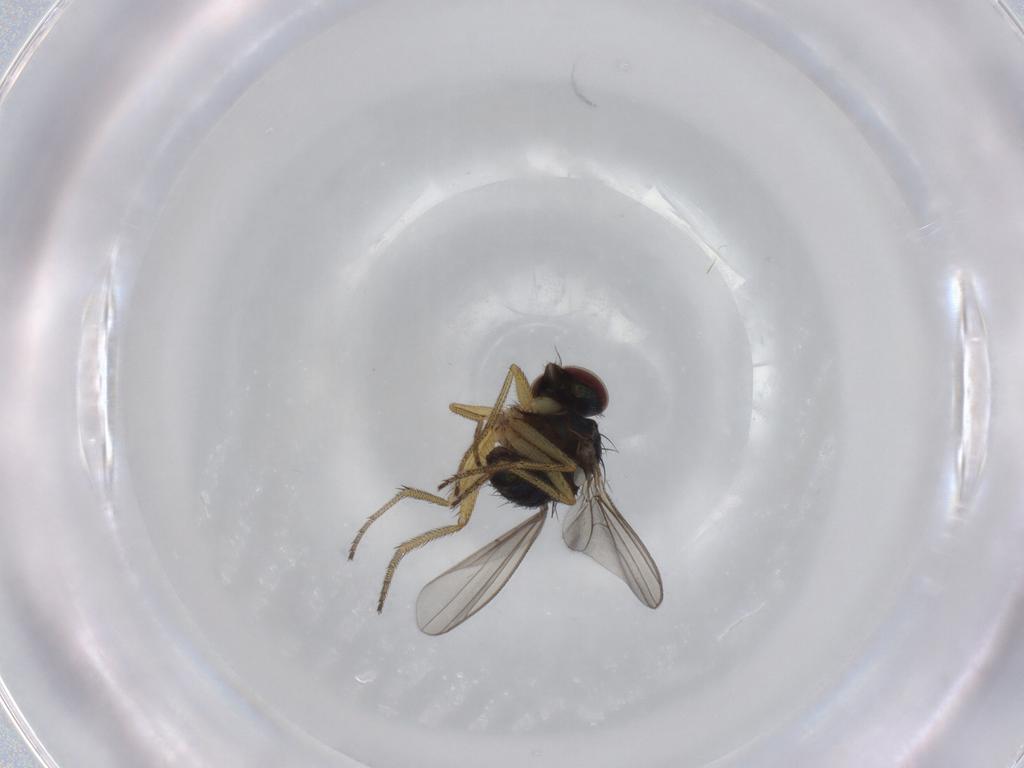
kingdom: Animalia
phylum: Arthropoda
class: Insecta
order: Diptera
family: Dolichopodidae
